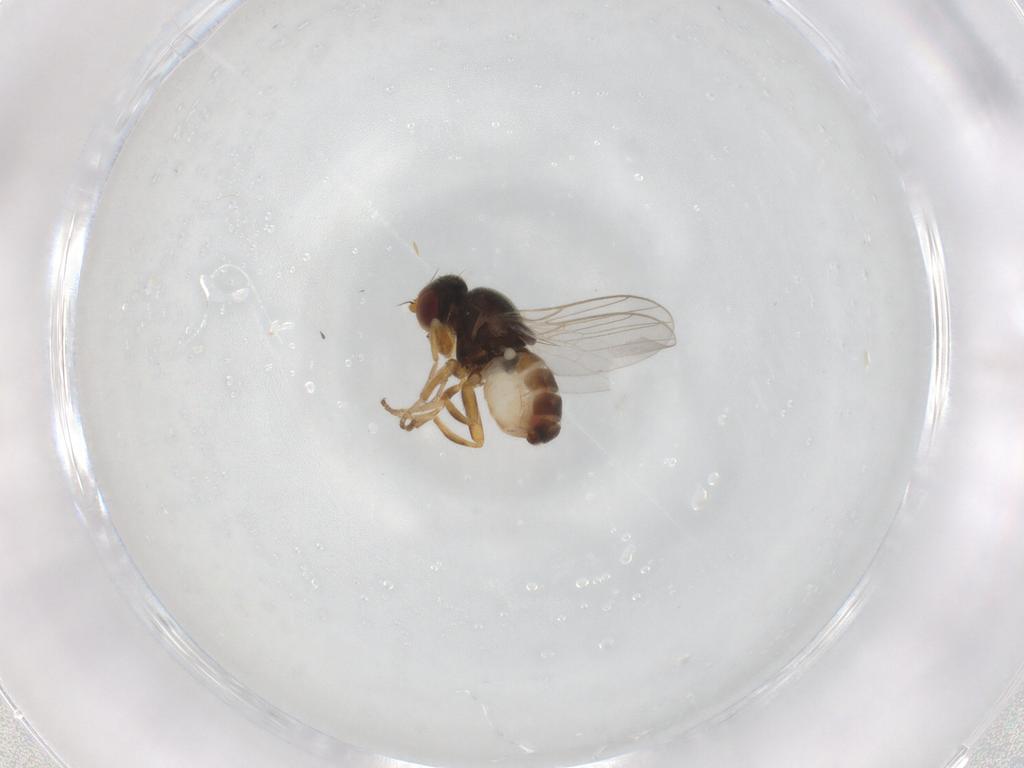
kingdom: Animalia
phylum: Arthropoda
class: Insecta
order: Diptera
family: Chloropidae
